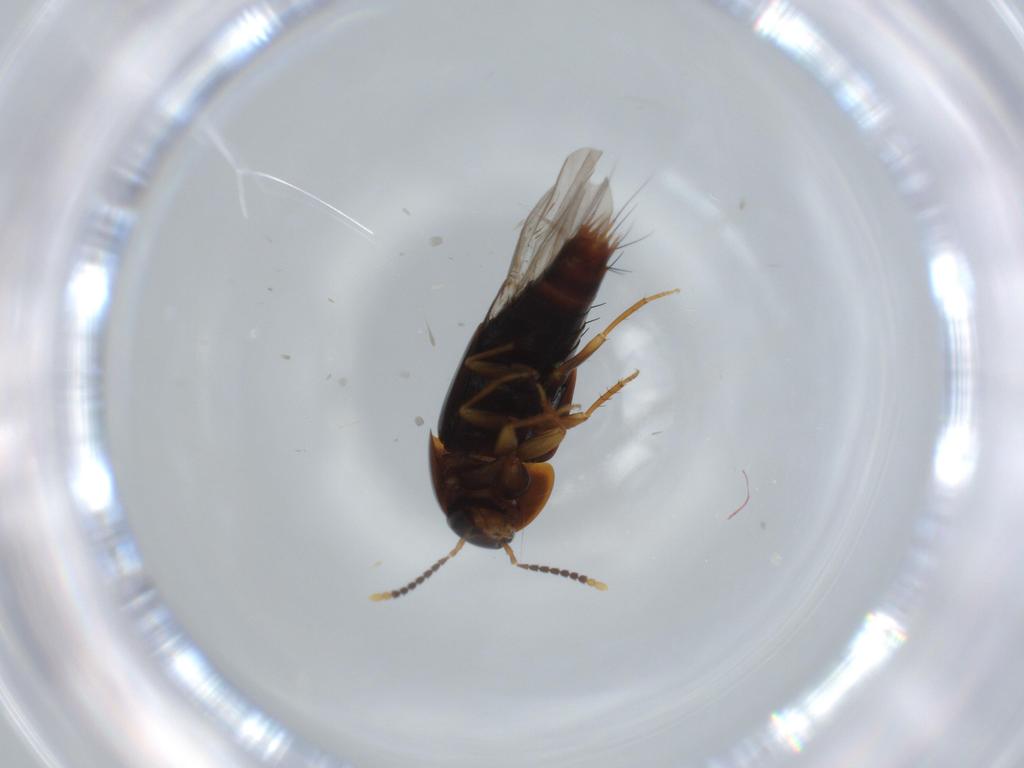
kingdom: Animalia
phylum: Arthropoda
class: Insecta
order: Coleoptera
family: Staphylinidae
